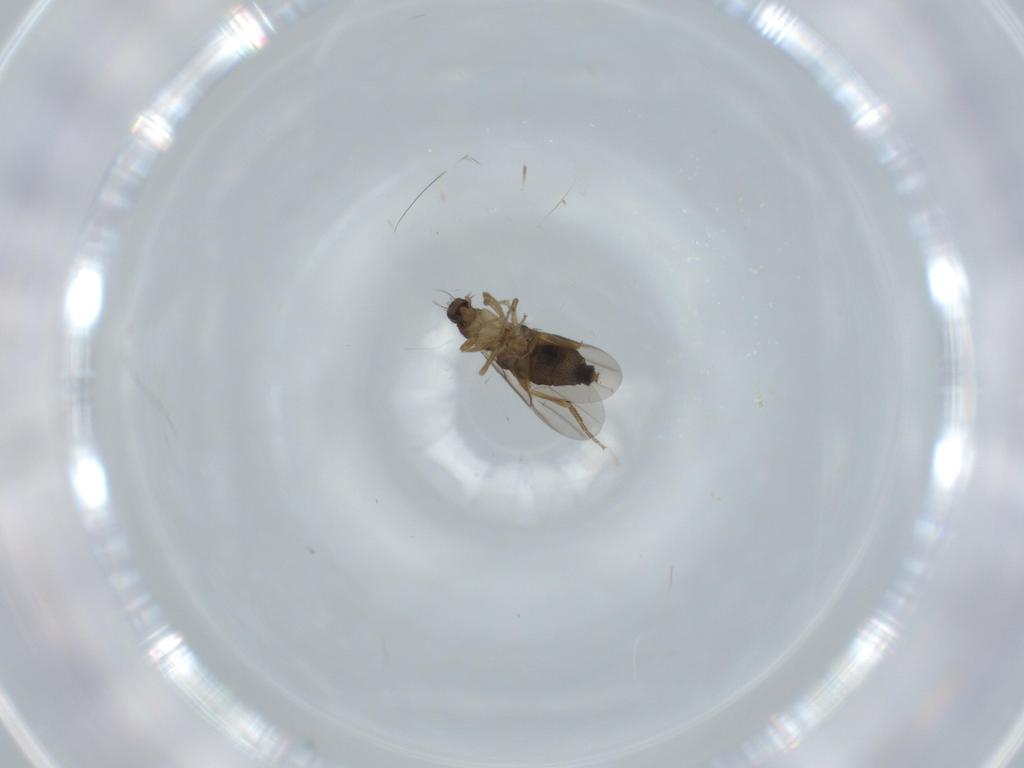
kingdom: Animalia
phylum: Arthropoda
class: Insecta
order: Diptera
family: Phoridae
